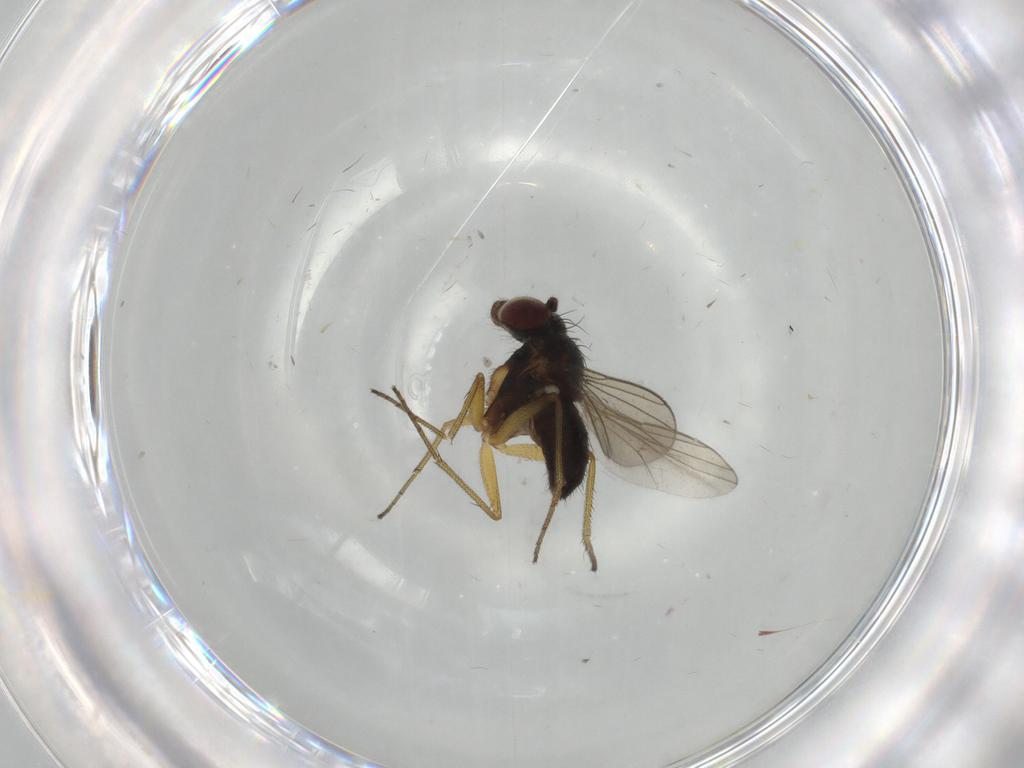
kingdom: Animalia
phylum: Arthropoda
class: Insecta
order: Diptera
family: Dolichopodidae
